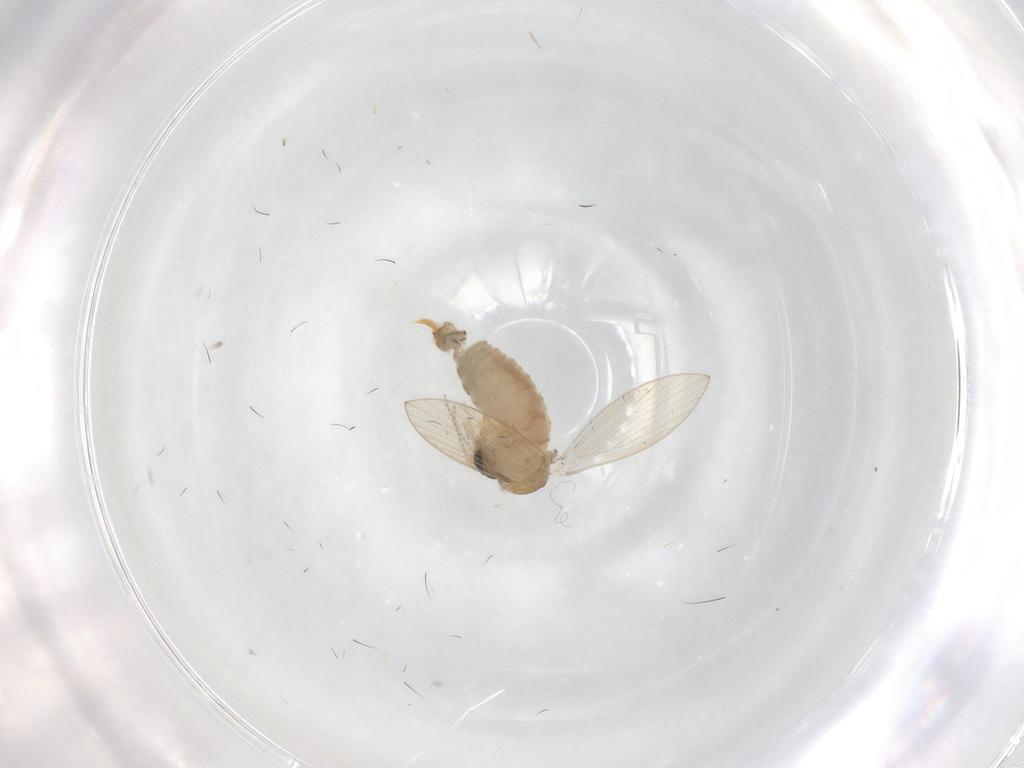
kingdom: Animalia
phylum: Arthropoda
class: Insecta
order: Diptera
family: Psychodidae
